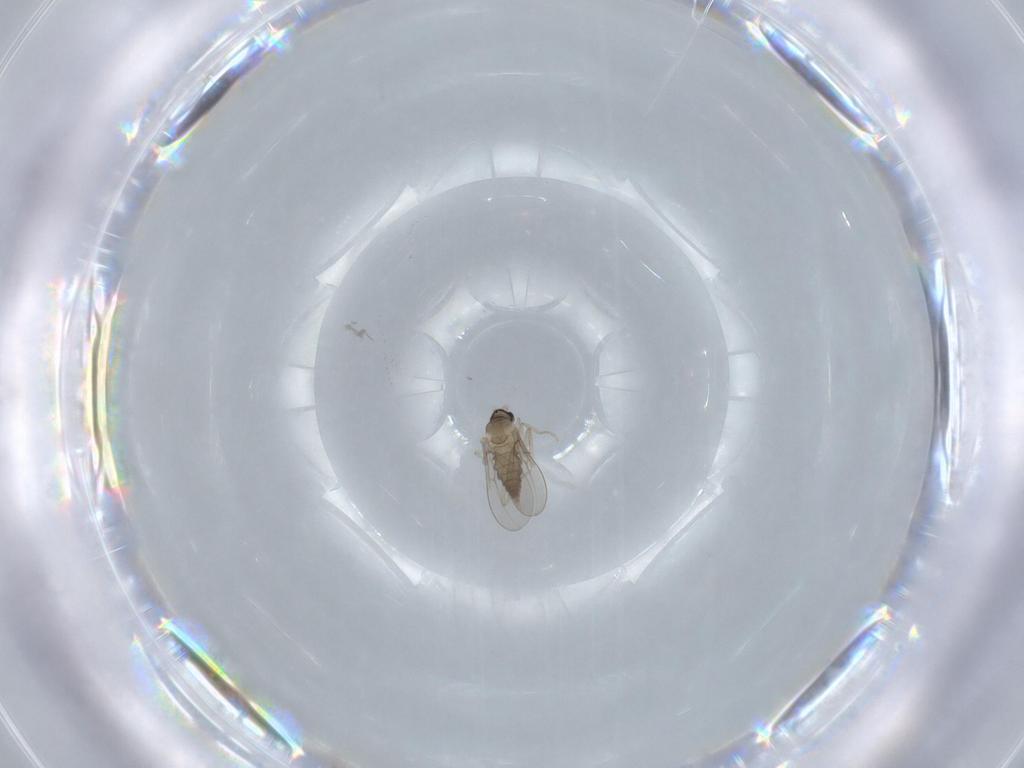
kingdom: Animalia
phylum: Arthropoda
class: Insecta
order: Diptera
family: Cecidomyiidae
